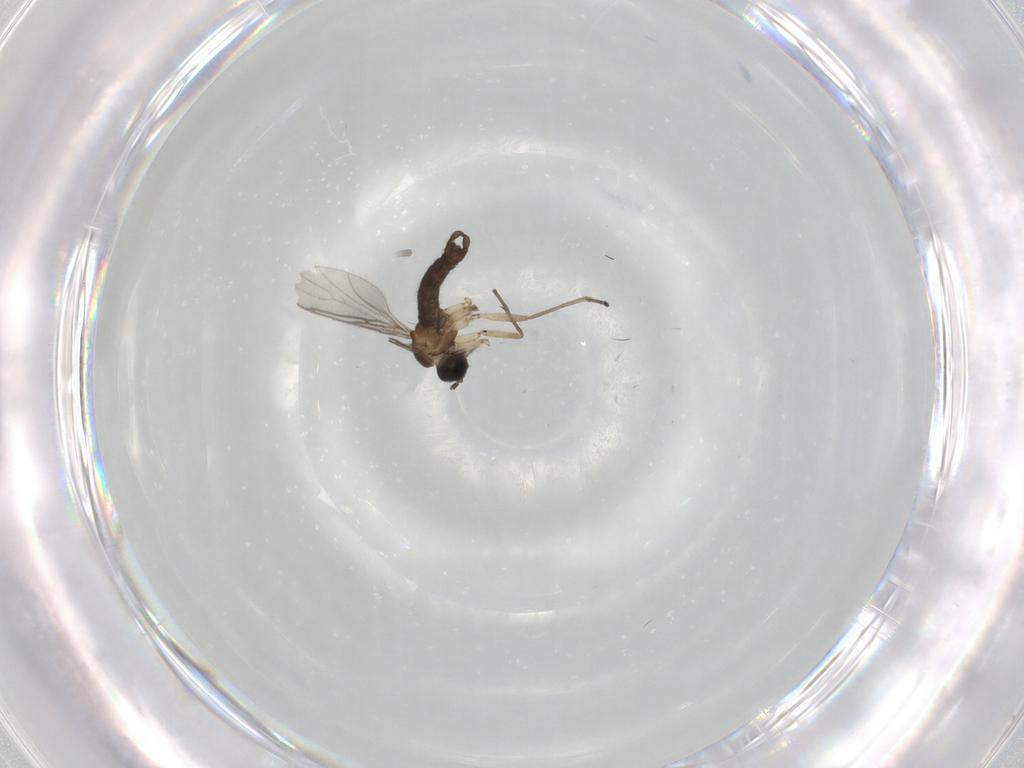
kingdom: Animalia
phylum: Arthropoda
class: Insecta
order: Diptera
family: Sciaridae
